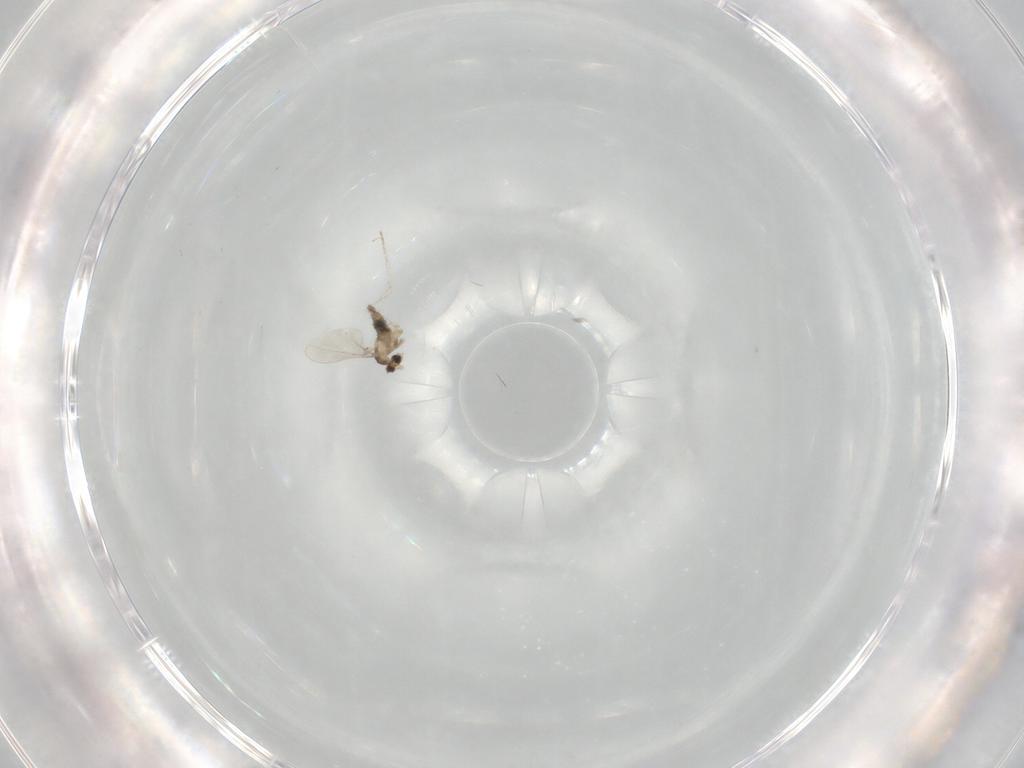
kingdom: Animalia
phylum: Arthropoda
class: Insecta
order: Diptera
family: Cecidomyiidae
